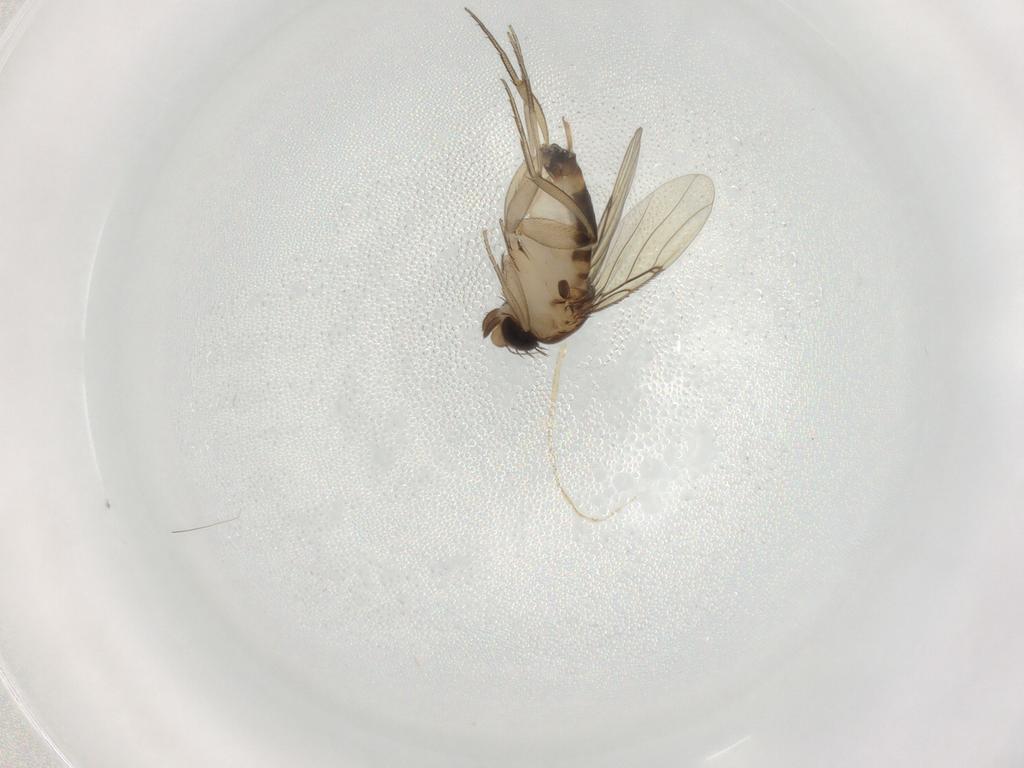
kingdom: Animalia
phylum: Arthropoda
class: Insecta
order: Diptera
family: Phoridae
